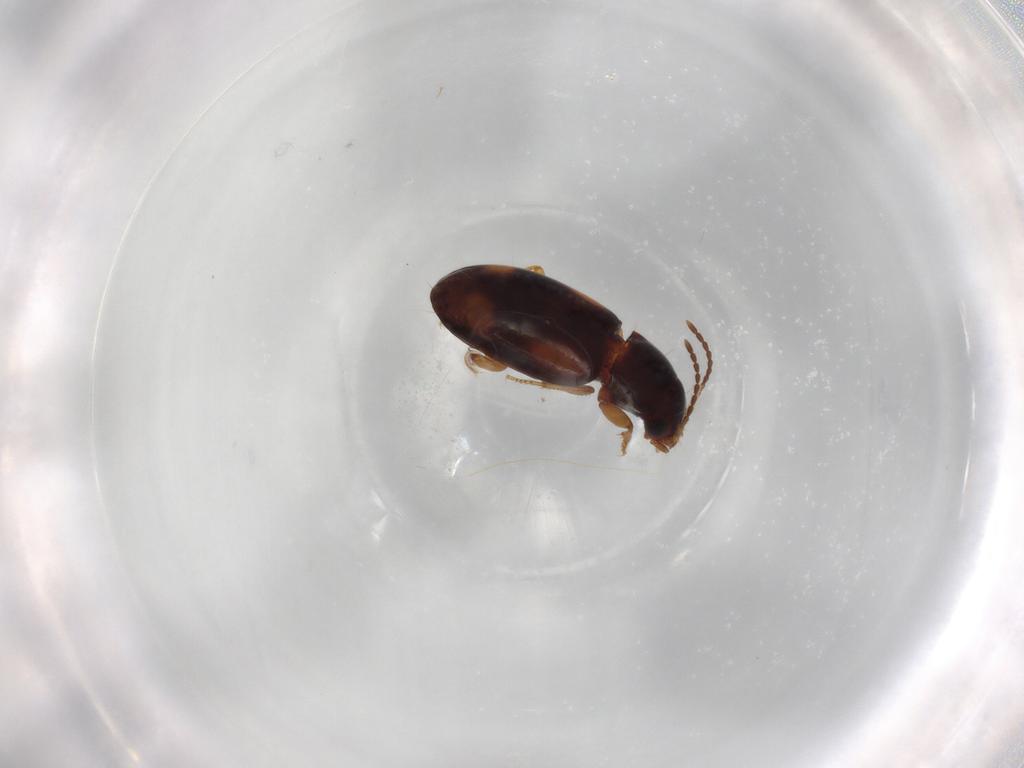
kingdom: Animalia
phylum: Arthropoda
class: Insecta
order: Coleoptera
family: Carabidae
